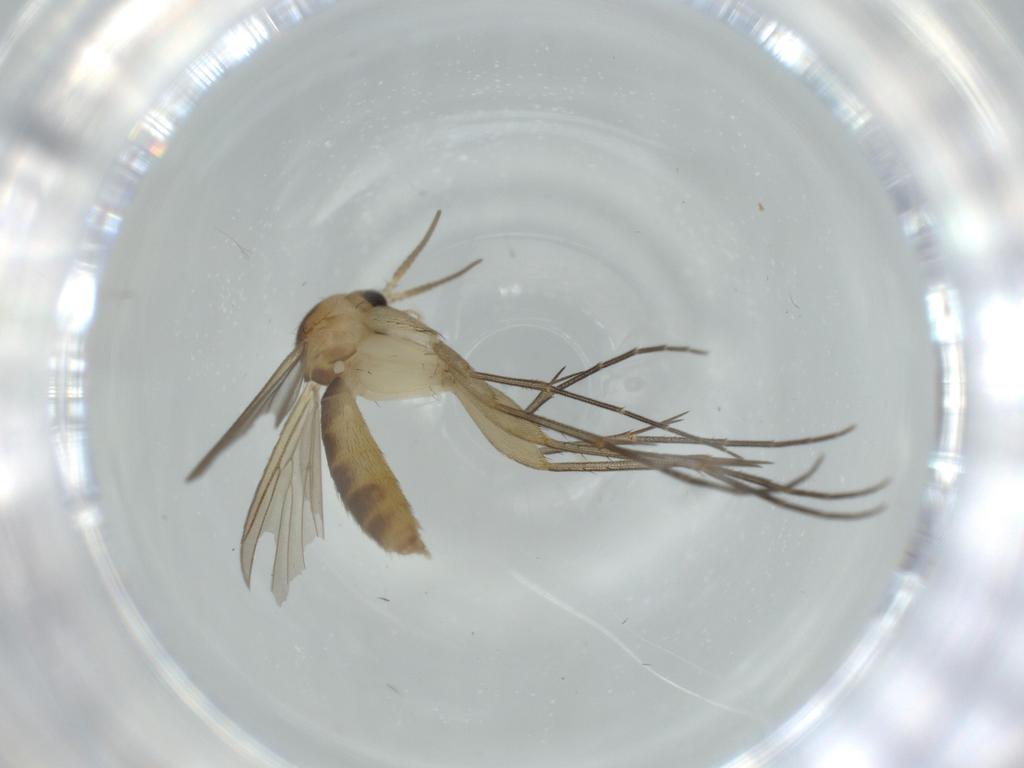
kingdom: Animalia
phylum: Arthropoda
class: Insecta
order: Diptera
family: Mycetophilidae
